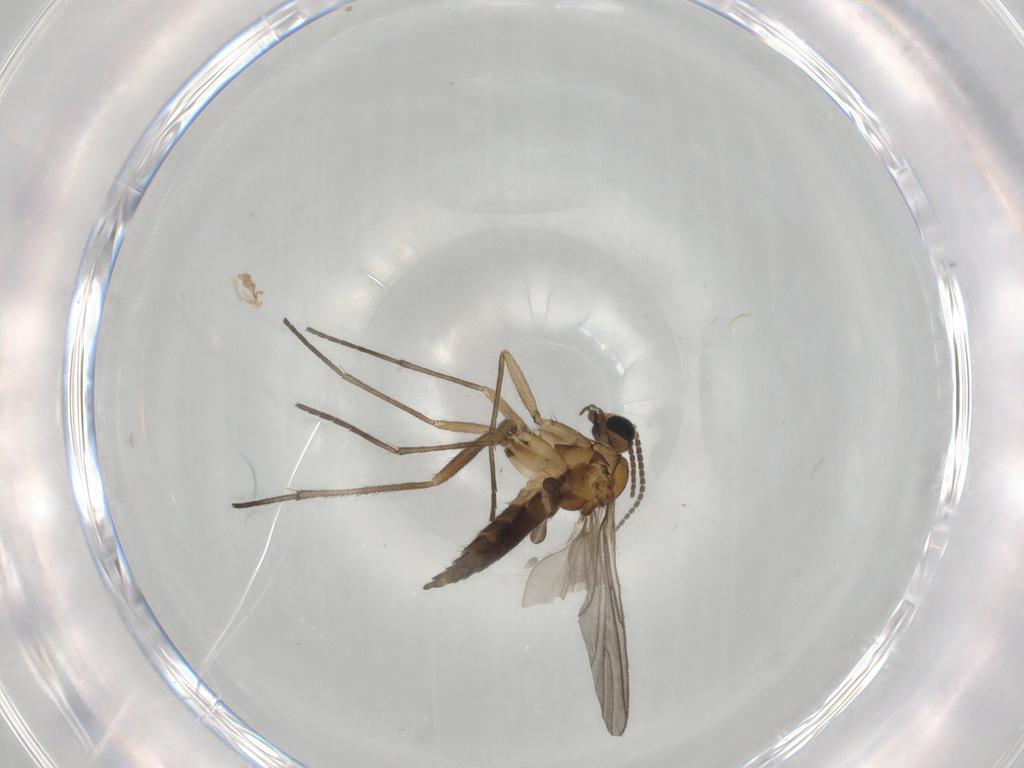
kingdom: Animalia
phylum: Arthropoda
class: Insecta
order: Diptera
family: Sciaridae
